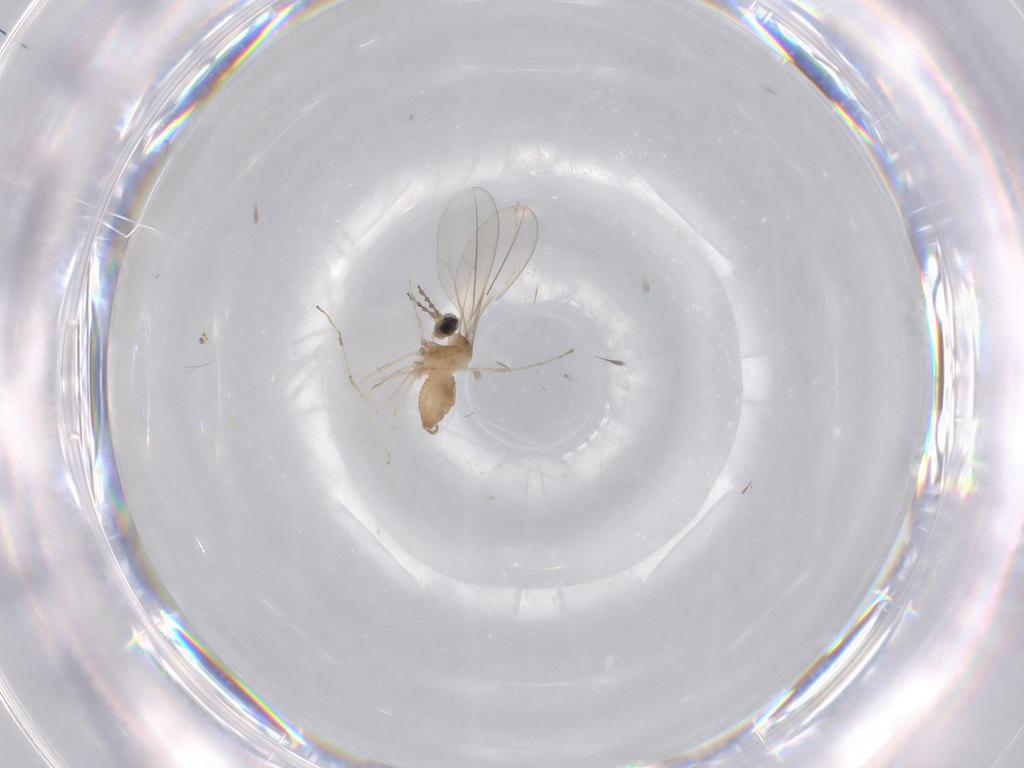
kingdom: Animalia
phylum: Arthropoda
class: Insecta
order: Diptera
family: Cecidomyiidae
